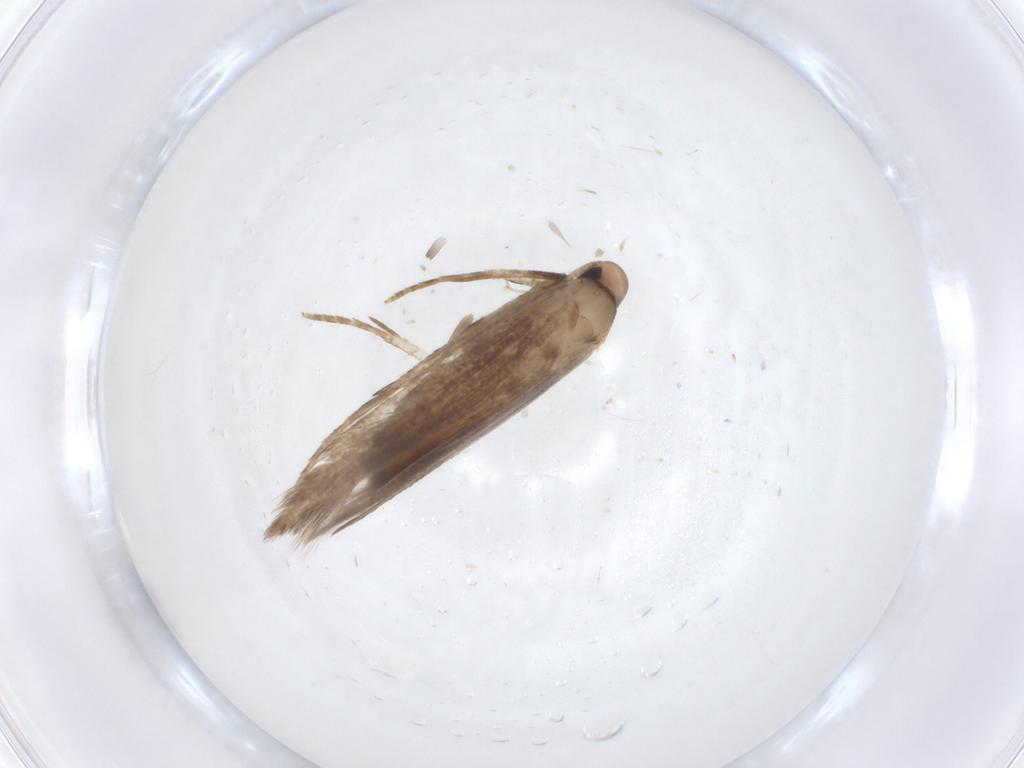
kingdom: Animalia
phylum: Arthropoda
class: Insecta
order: Lepidoptera
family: Cosmopterigidae
